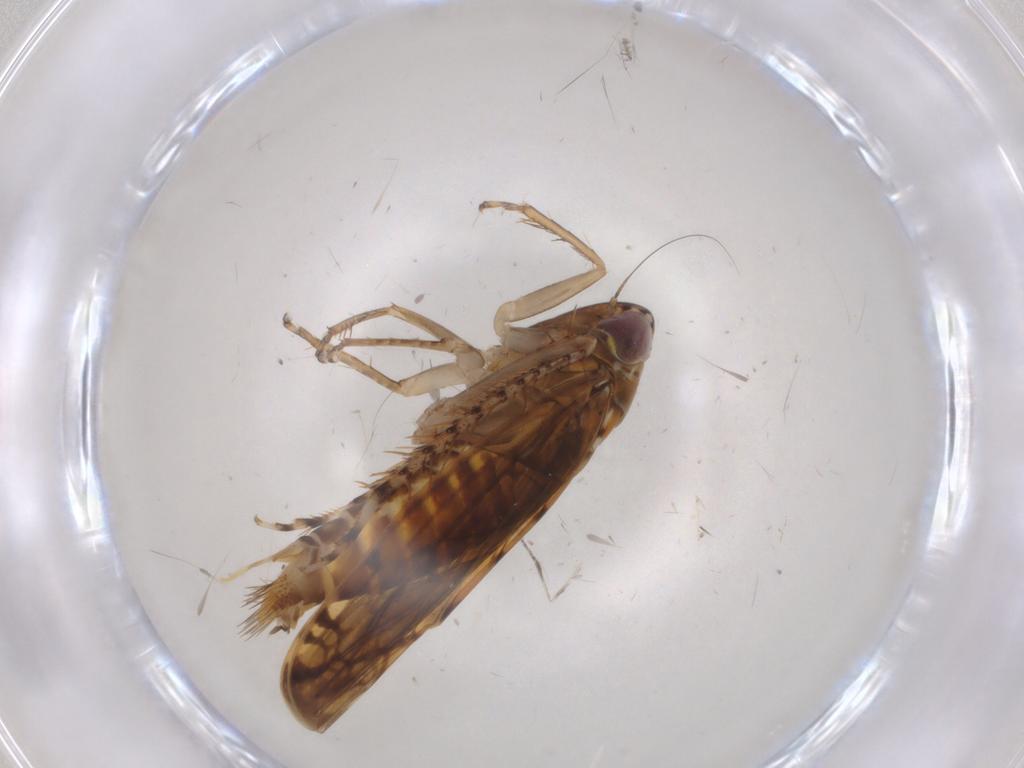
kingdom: Animalia
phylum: Arthropoda
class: Insecta
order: Hemiptera
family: Cicadellidae
